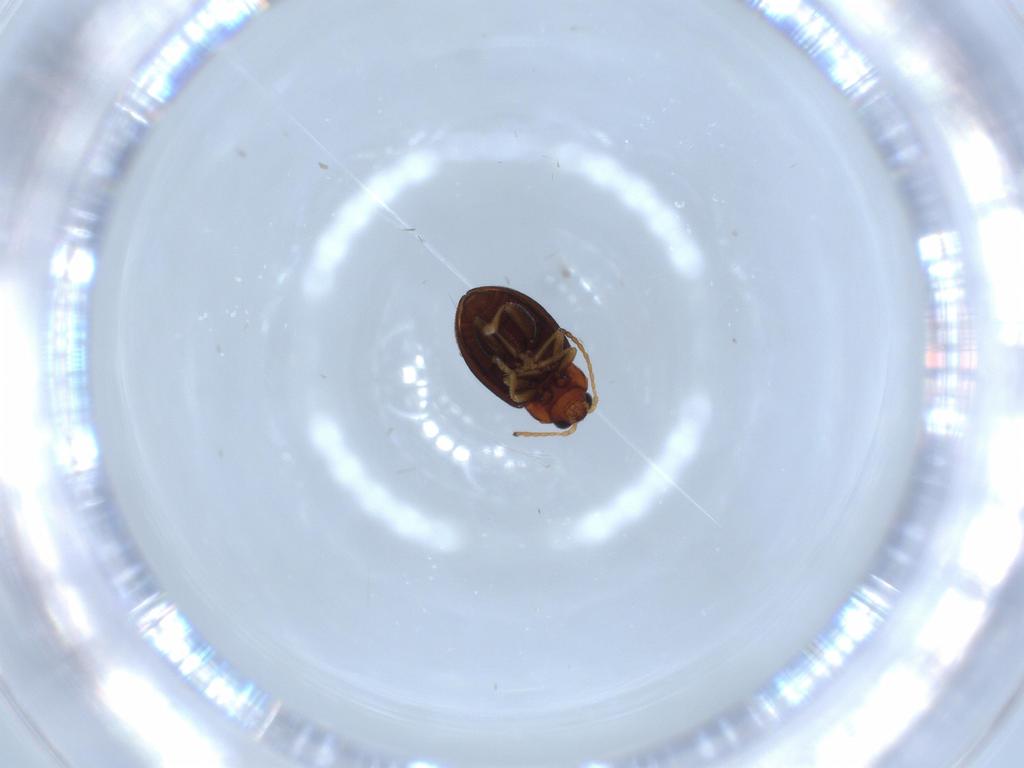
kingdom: Animalia
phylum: Arthropoda
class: Insecta
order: Coleoptera
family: Chrysomelidae
